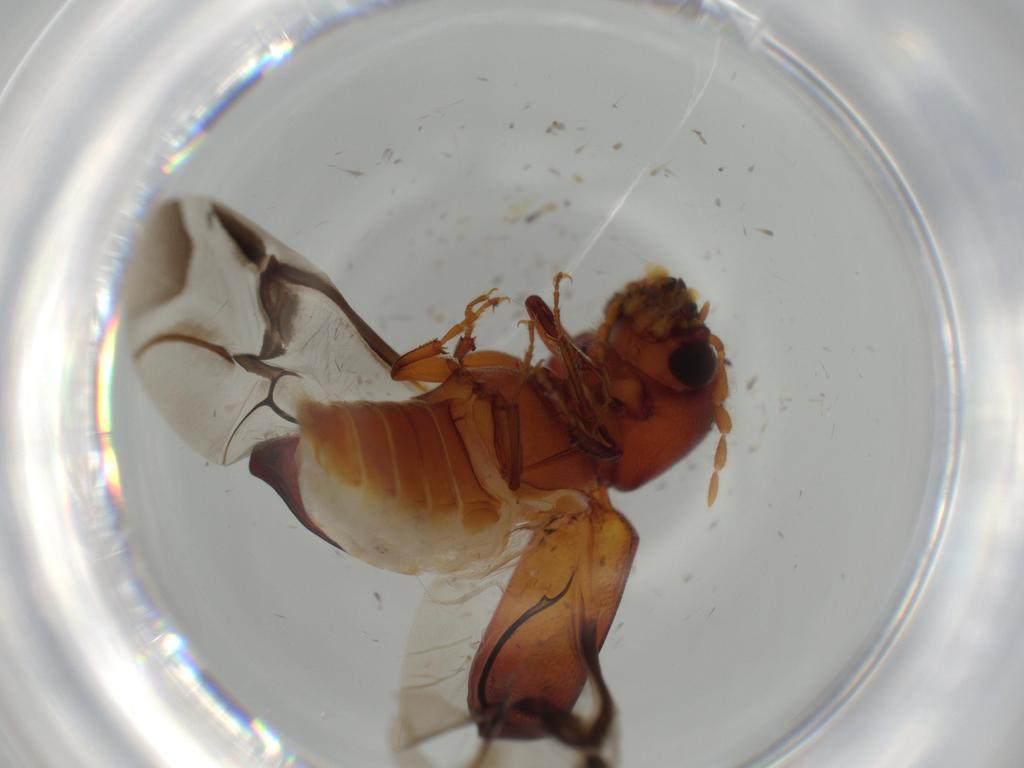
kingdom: Animalia
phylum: Arthropoda
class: Insecta
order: Coleoptera
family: Bostrichidae
